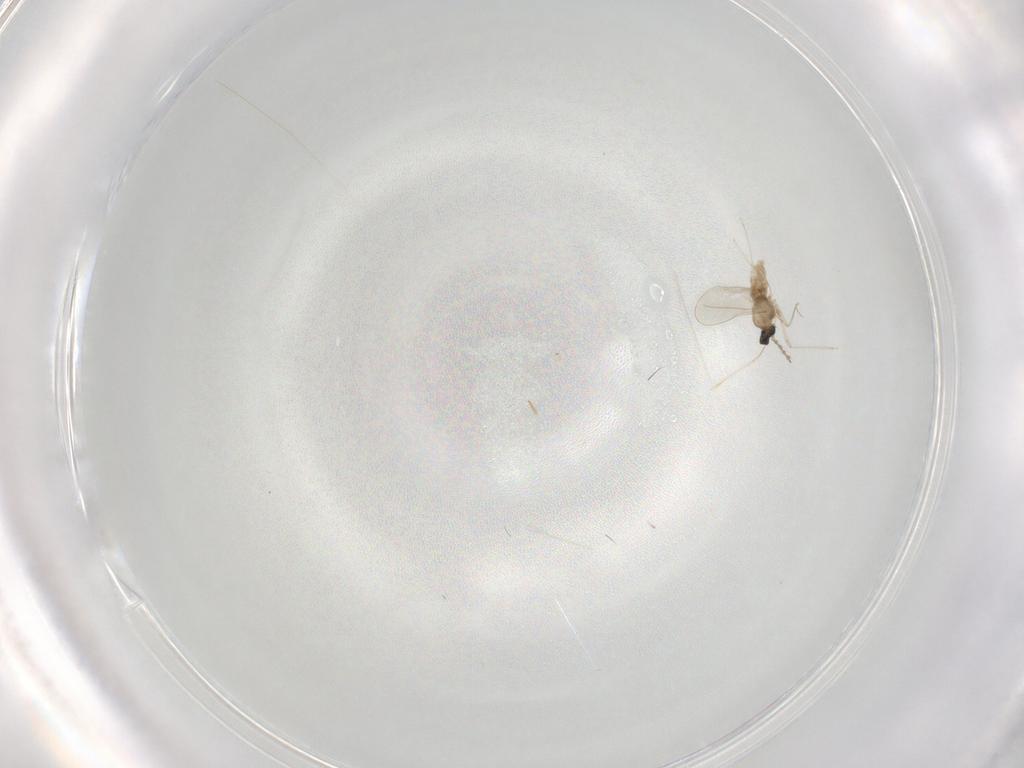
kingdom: Animalia
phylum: Arthropoda
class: Insecta
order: Diptera
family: Cecidomyiidae
